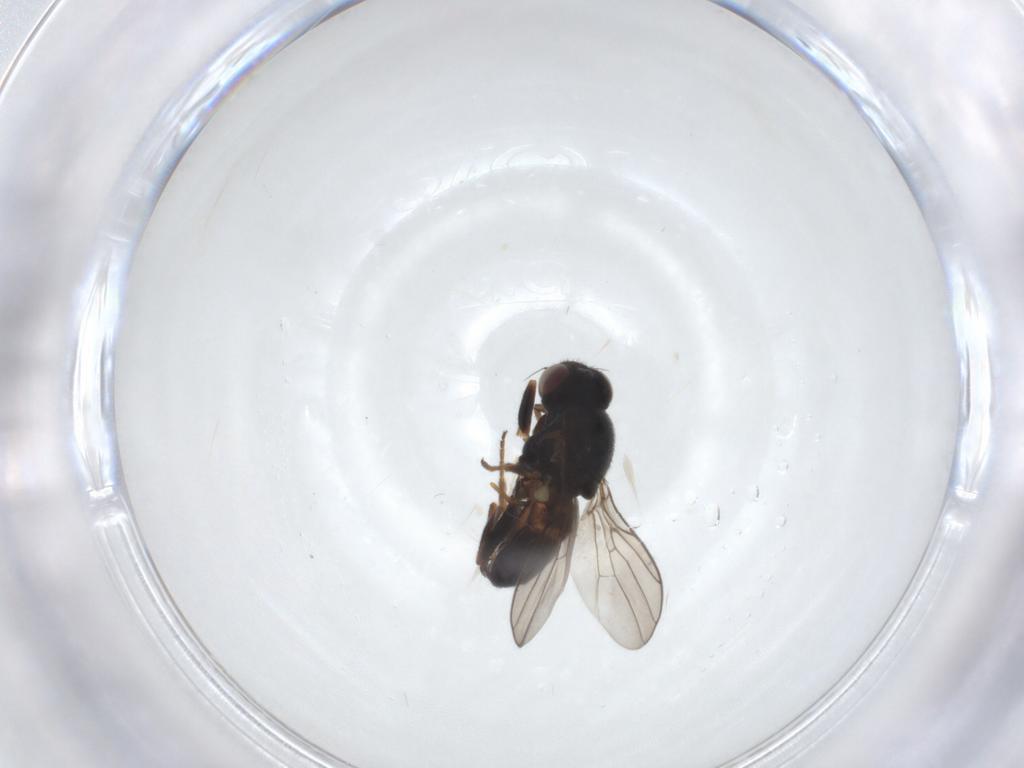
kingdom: Animalia
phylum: Arthropoda
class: Insecta
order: Diptera
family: Chloropidae
